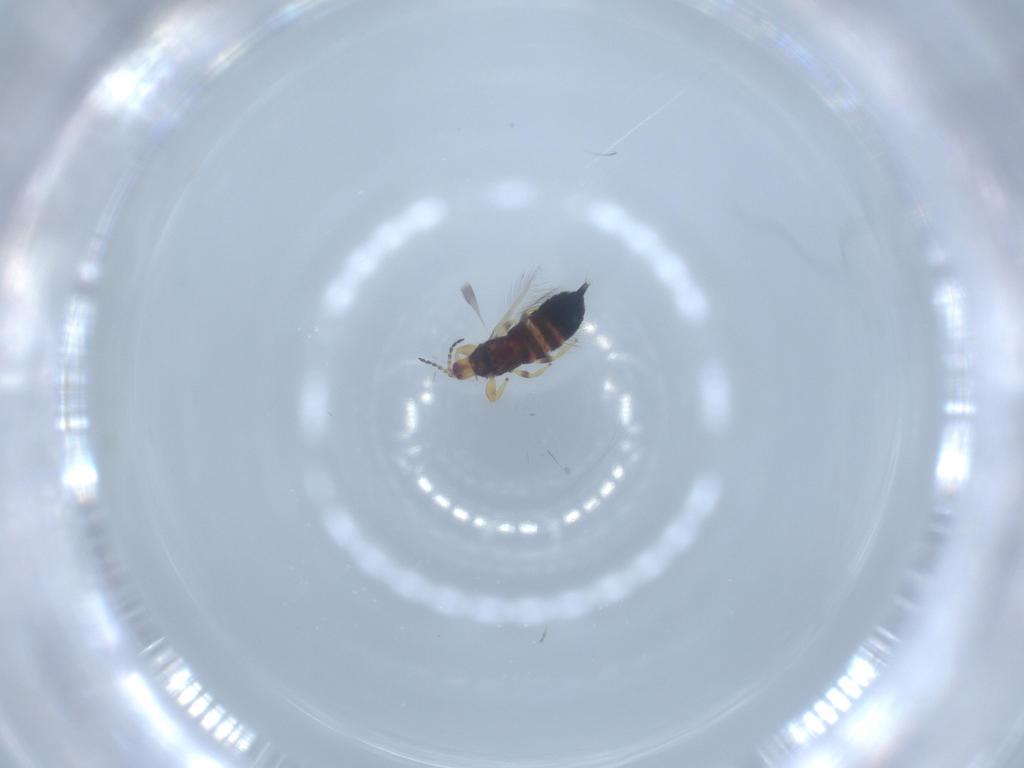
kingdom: Animalia
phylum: Arthropoda
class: Insecta
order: Thysanoptera
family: Phlaeothripidae
